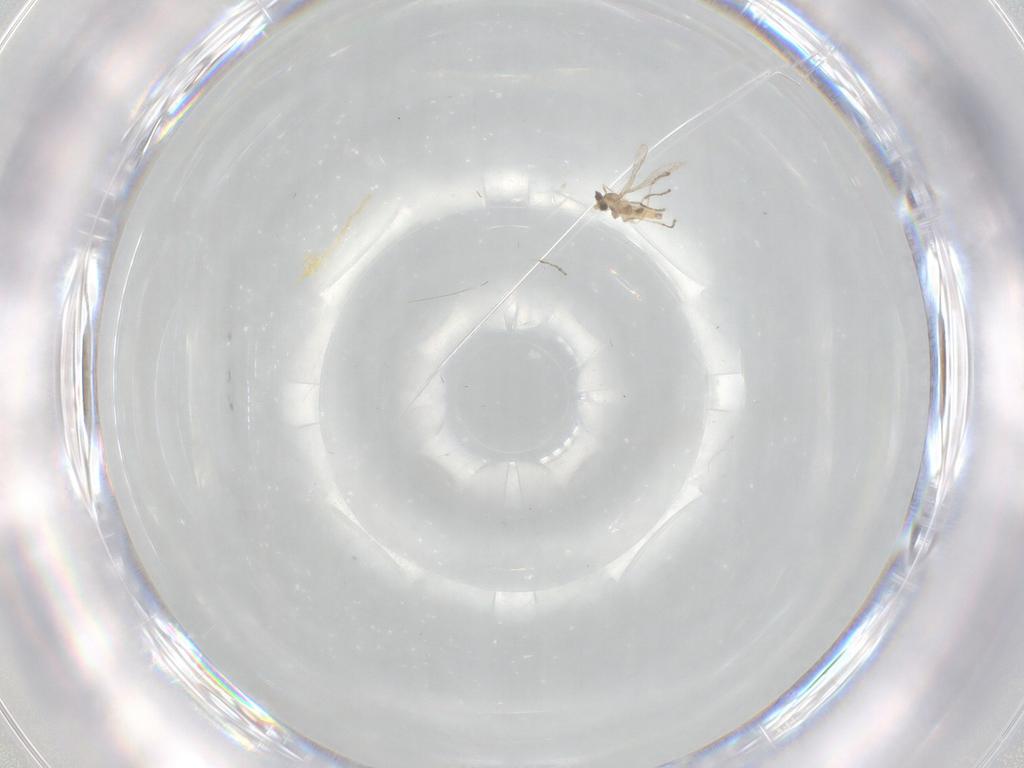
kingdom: Animalia
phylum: Arthropoda
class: Insecta
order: Diptera
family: Cecidomyiidae
